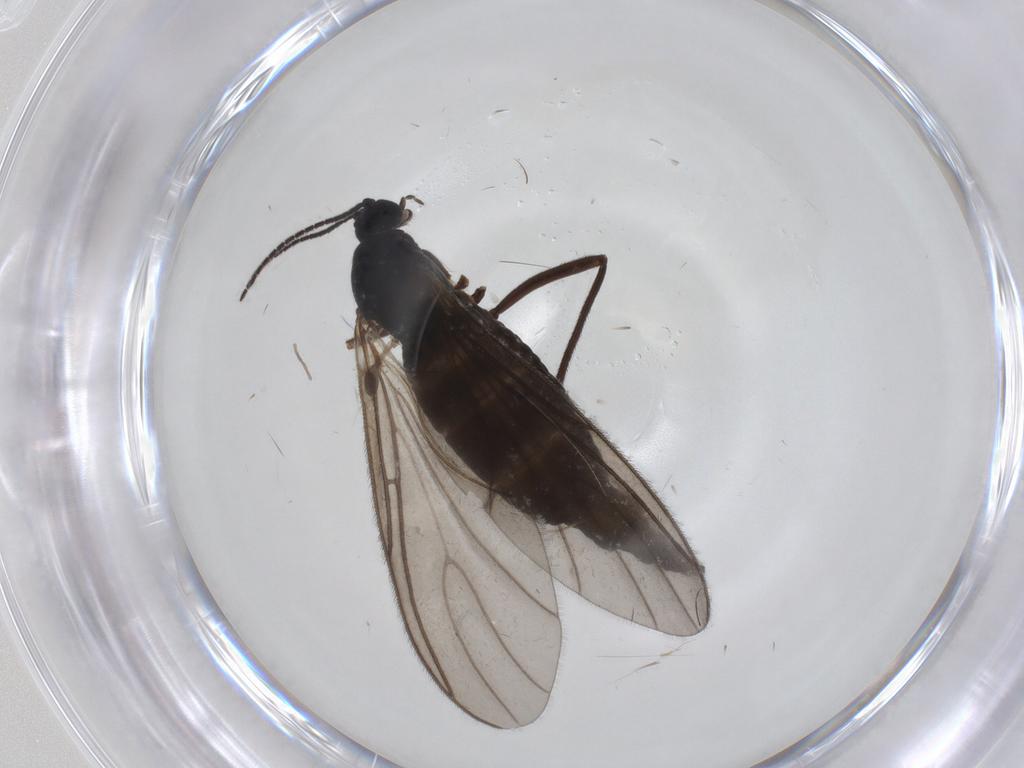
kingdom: Animalia
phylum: Arthropoda
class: Insecta
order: Diptera
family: Sciaridae
